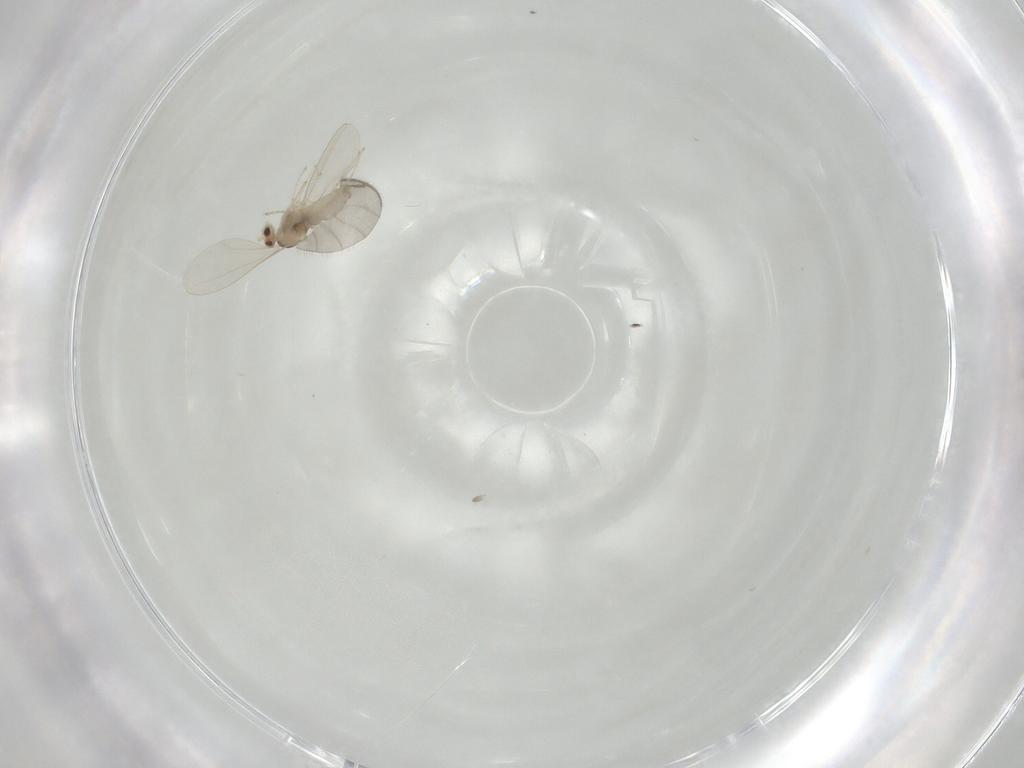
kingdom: Animalia
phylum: Arthropoda
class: Insecta
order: Diptera
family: Cecidomyiidae
